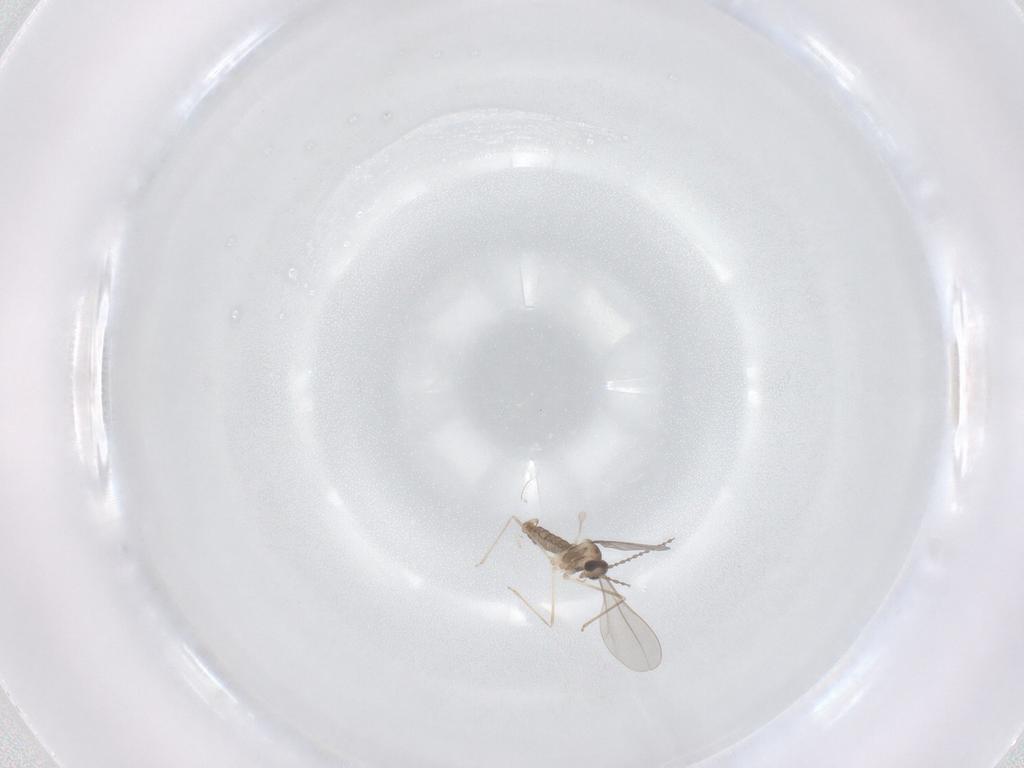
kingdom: Animalia
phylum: Arthropoda
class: Insecta
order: Diptera
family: Cecidomyiidae
